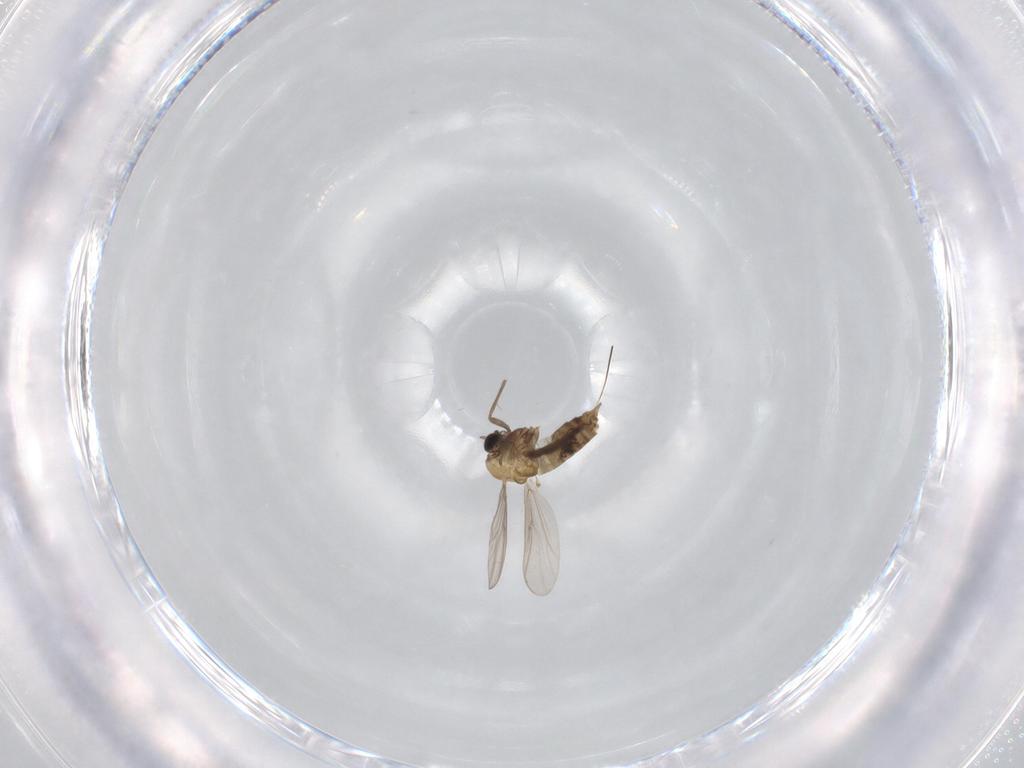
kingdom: Animalia
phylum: Arthropoda
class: Insecta
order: Diptera
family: Chironomidae
